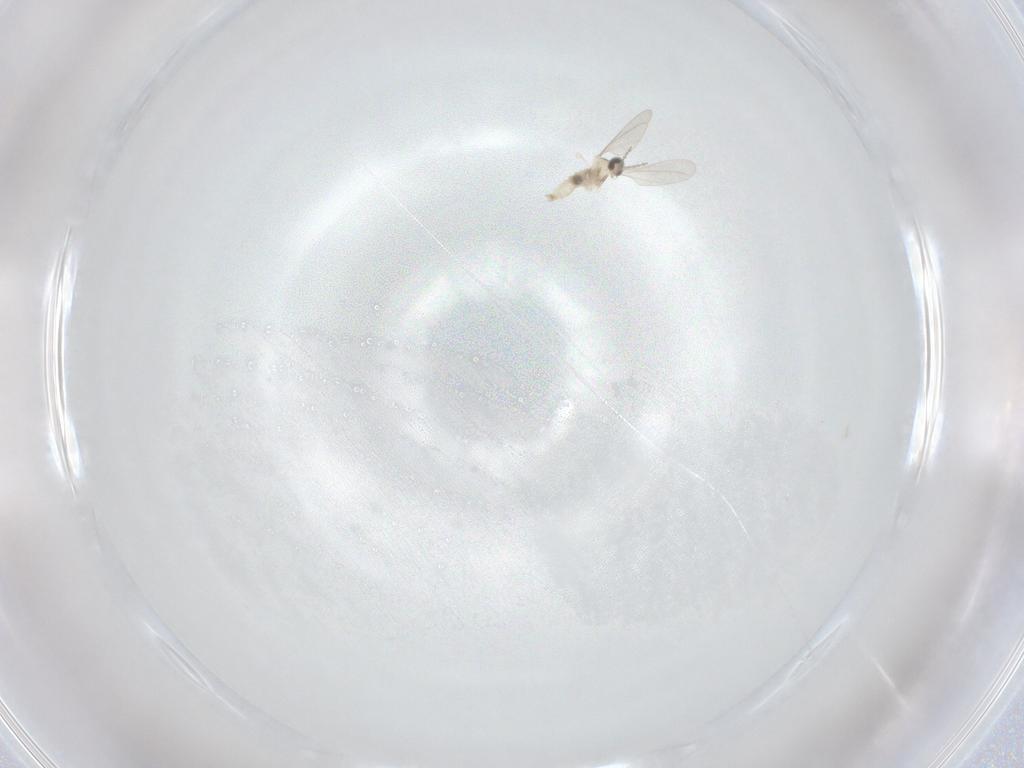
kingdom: Animalia
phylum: Arthropoda
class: Insecta
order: Diptera
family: Cecidomyiidae
